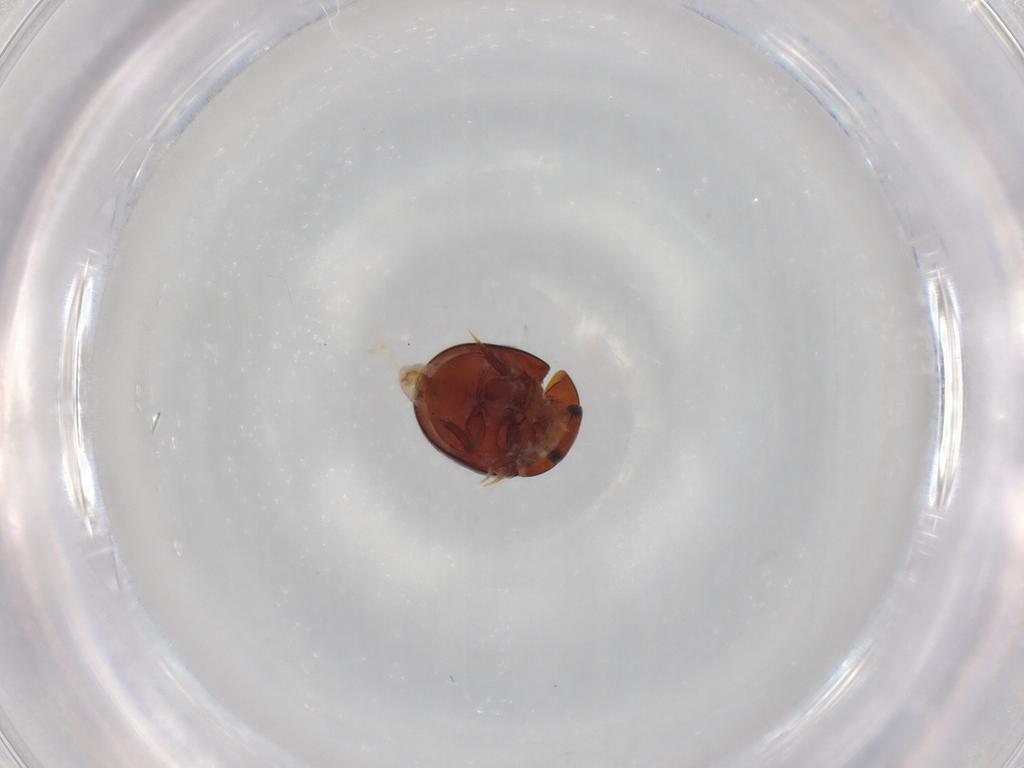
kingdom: Animalia
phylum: Arthropoda
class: Insecta
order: Coleoptera
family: Hydrophilidae
